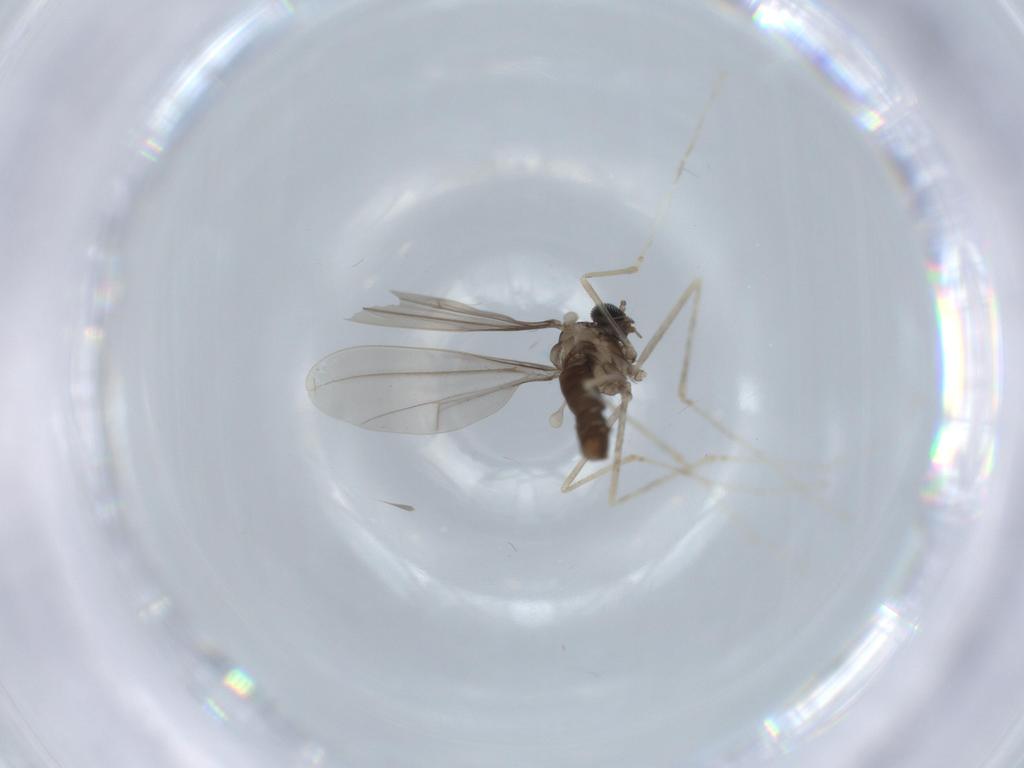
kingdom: Animalia
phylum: Arthropoda
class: Insecta
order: Diptera
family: Cecidomyiidae
